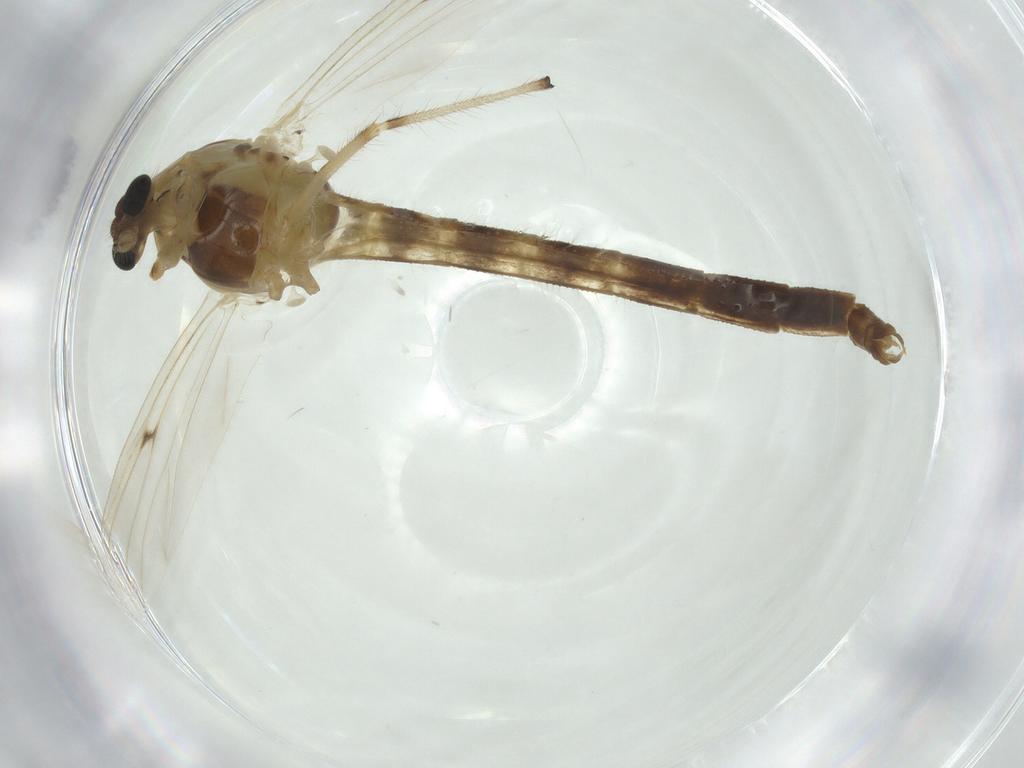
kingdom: Animalia
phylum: Arthropoda
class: Insecta
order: Diptera
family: Chironomidae
